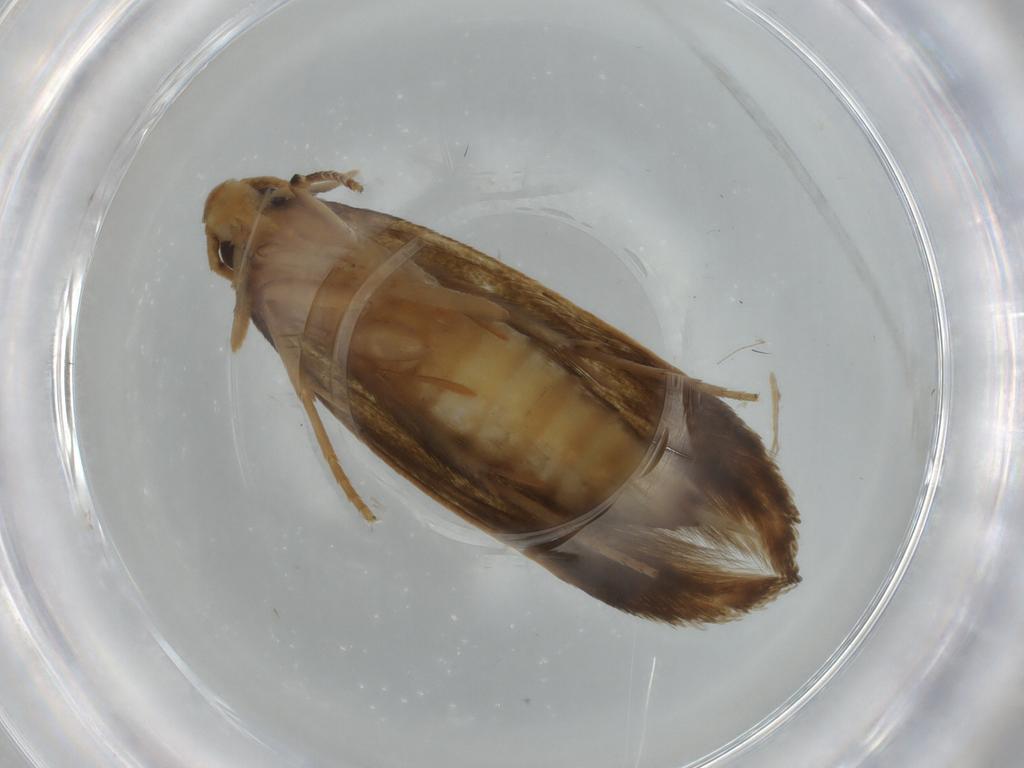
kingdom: Animalia
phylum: Arthropoda
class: Insecta
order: Lepidoptera
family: Tineidae
